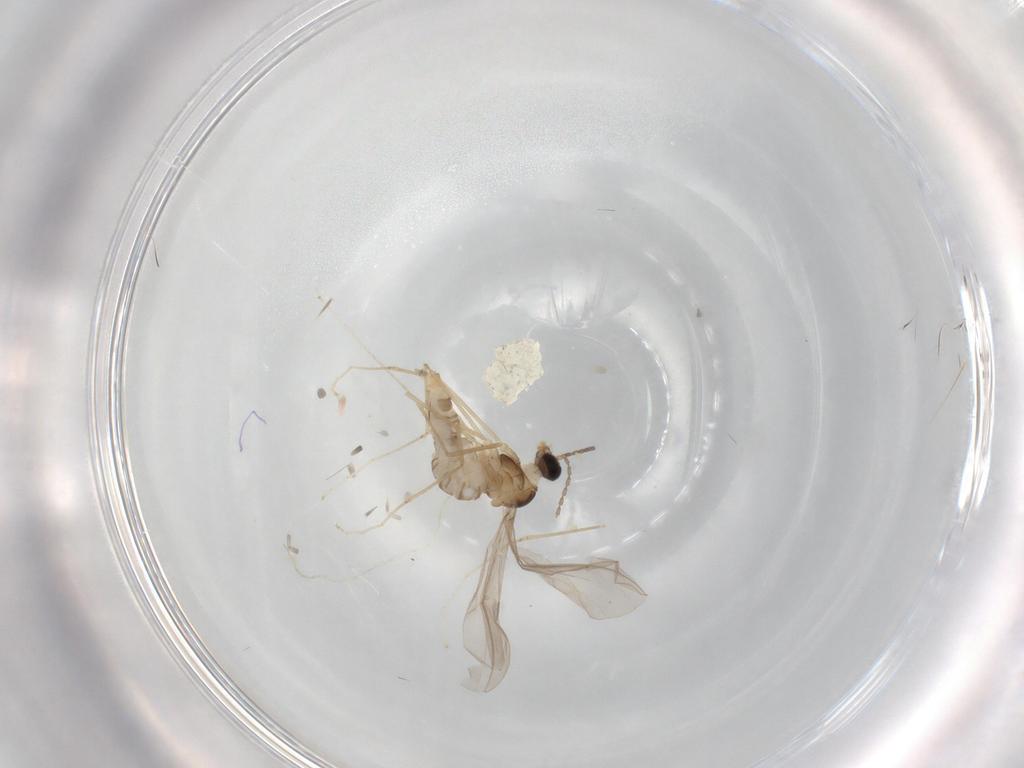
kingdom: Animalia
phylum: Arthropoda
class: Insecta
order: Diptera
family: Cecidomyiidae
